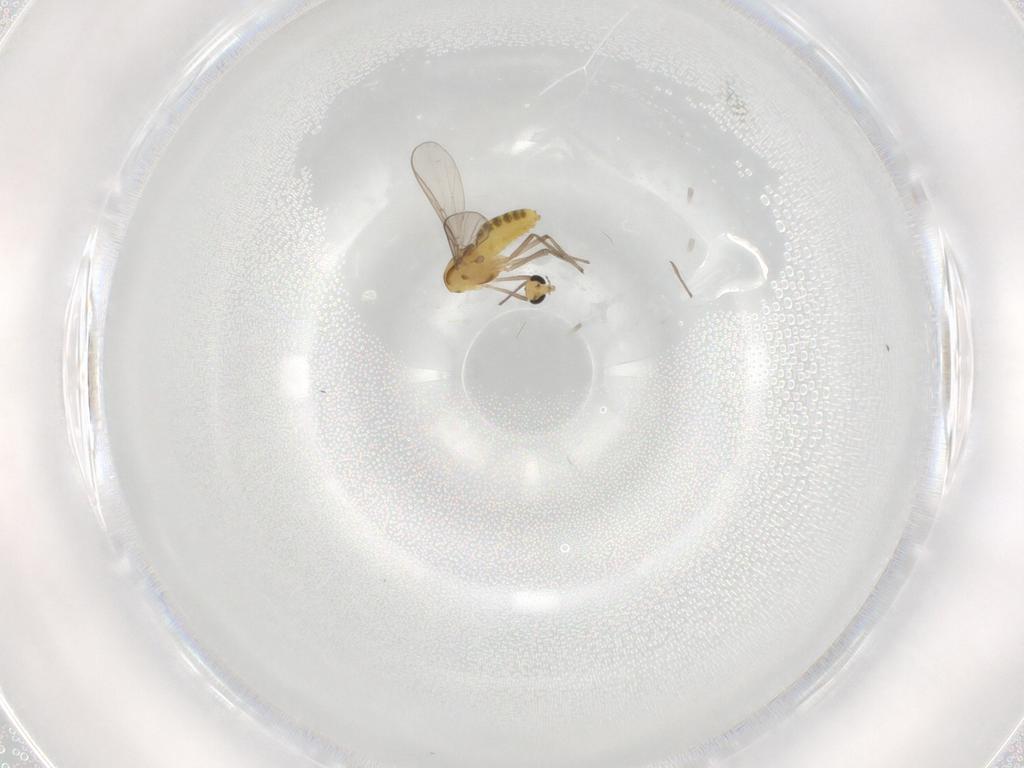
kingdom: Animalia
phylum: Arthropoda
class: Insecta
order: Diptera
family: Chironomidae
